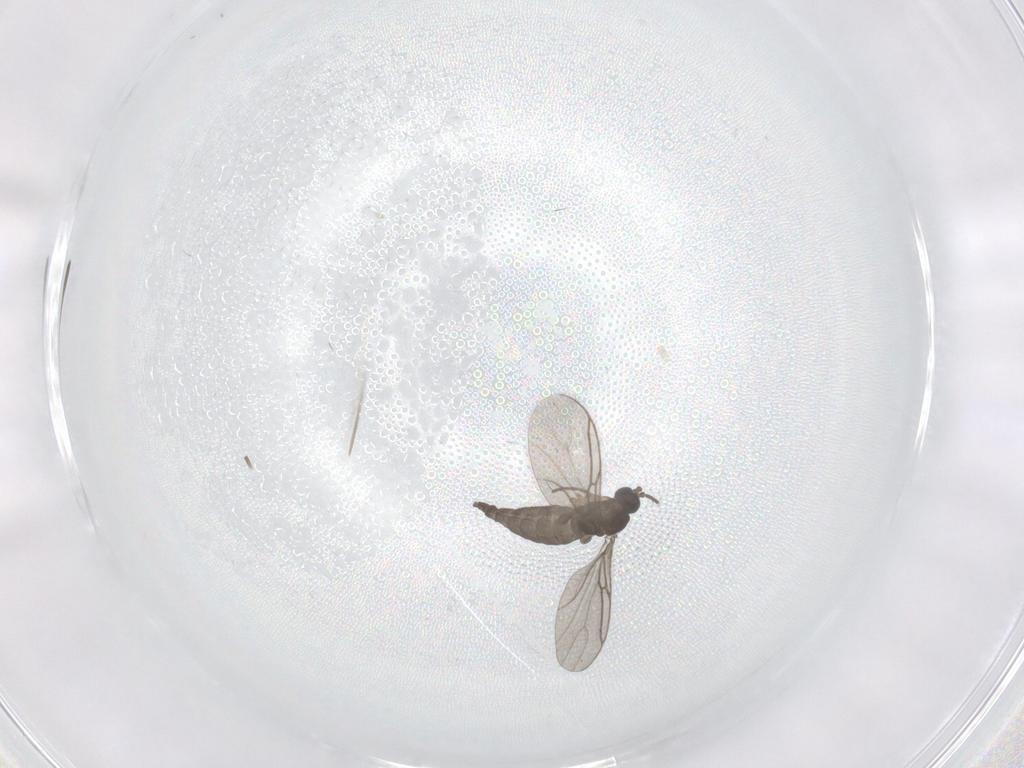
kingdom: Animalia
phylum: Arthropoda
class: Insecta
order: Diptera
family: Sciaridae
